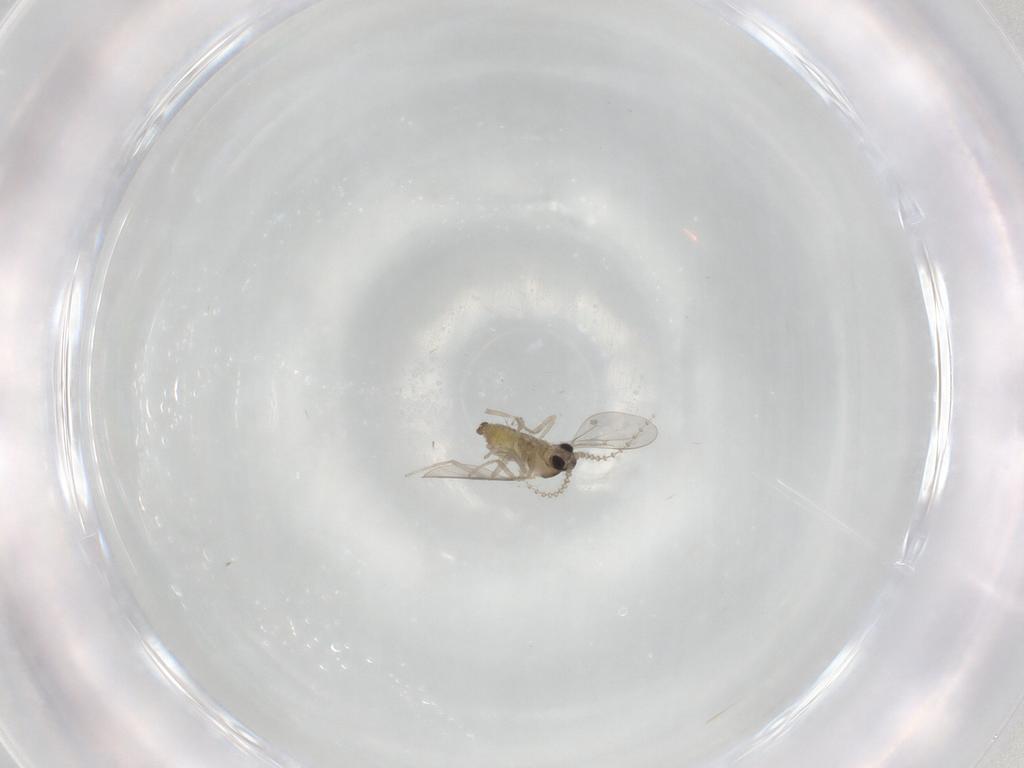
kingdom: Animalia
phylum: Arthropoda
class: Insecta
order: Diptera
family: Cecidomyiidae
